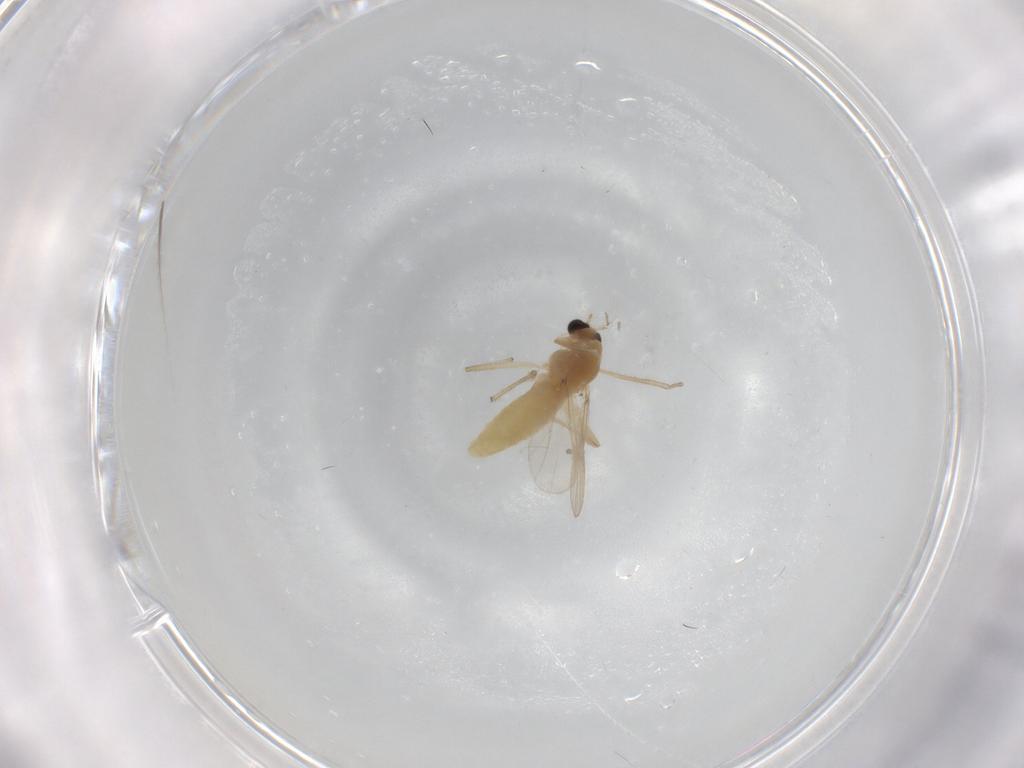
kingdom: Animalia
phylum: Arthropoda
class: Insecta
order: Diptera
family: Chironomidae
